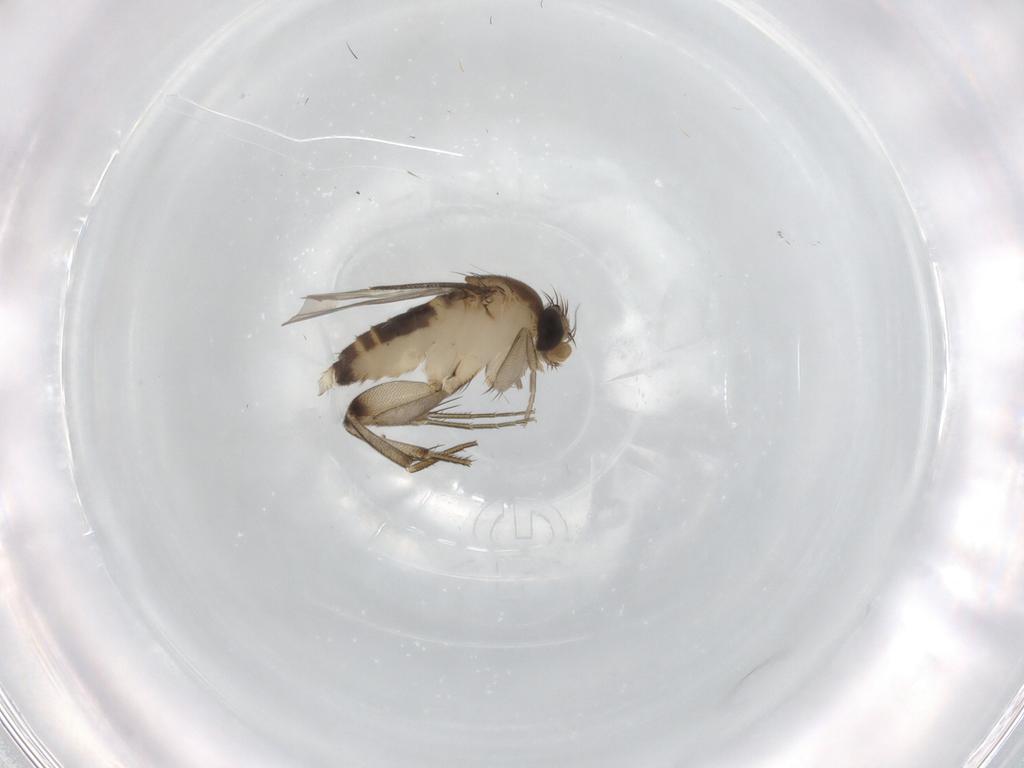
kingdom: Animalia
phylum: Arthropoda
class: Insecta
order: Diptera
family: Phoridae
